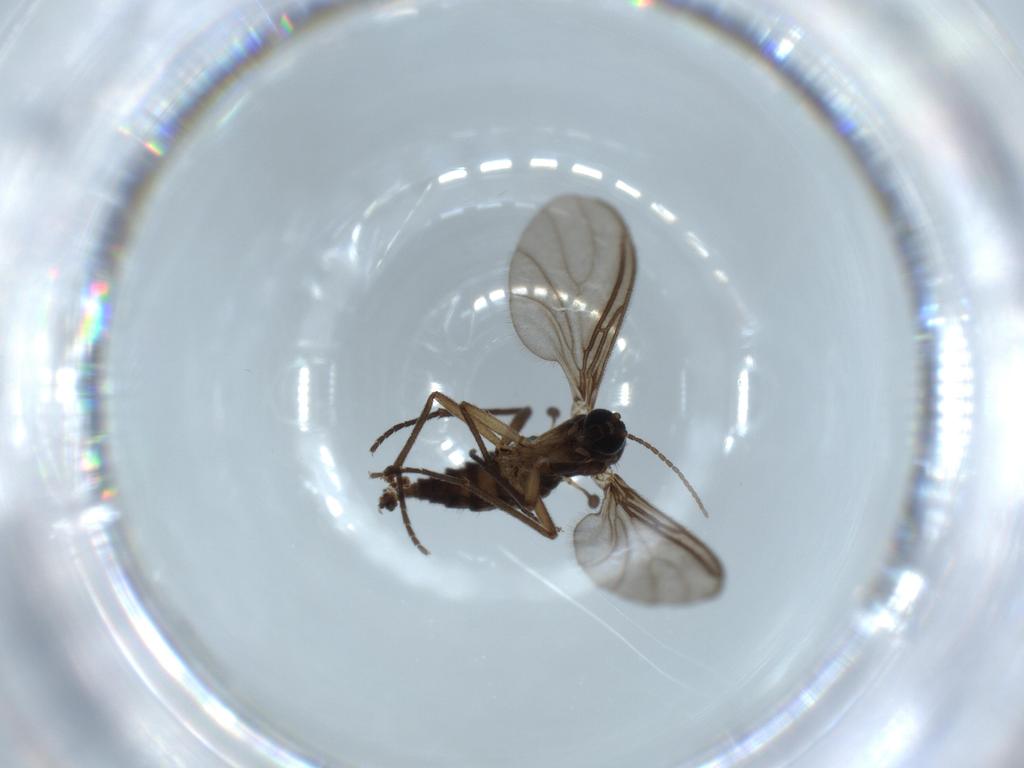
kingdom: Animalia
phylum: Arthropoda
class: Insecta
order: Diptera
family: Sciaridae
